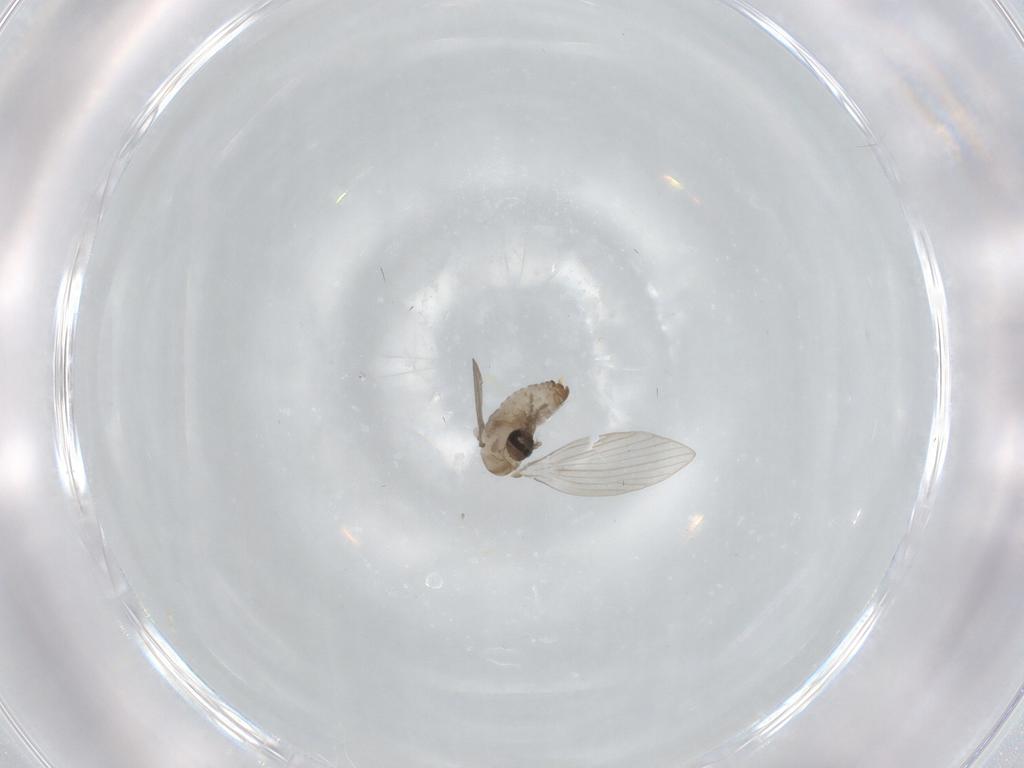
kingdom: Animalia
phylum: Arthropoda
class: Insecta
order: Diptera
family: Psychodidae
